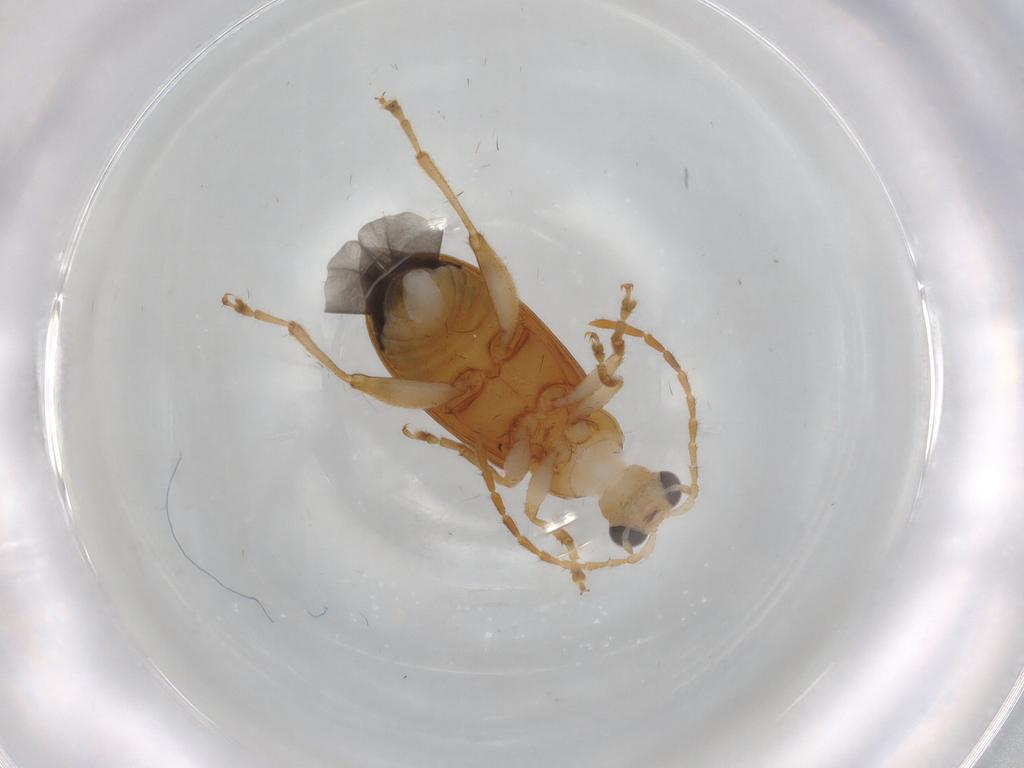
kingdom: Animalia
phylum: Arthropoda
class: Insecta
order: Coleoptera
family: Chrysomelidae
